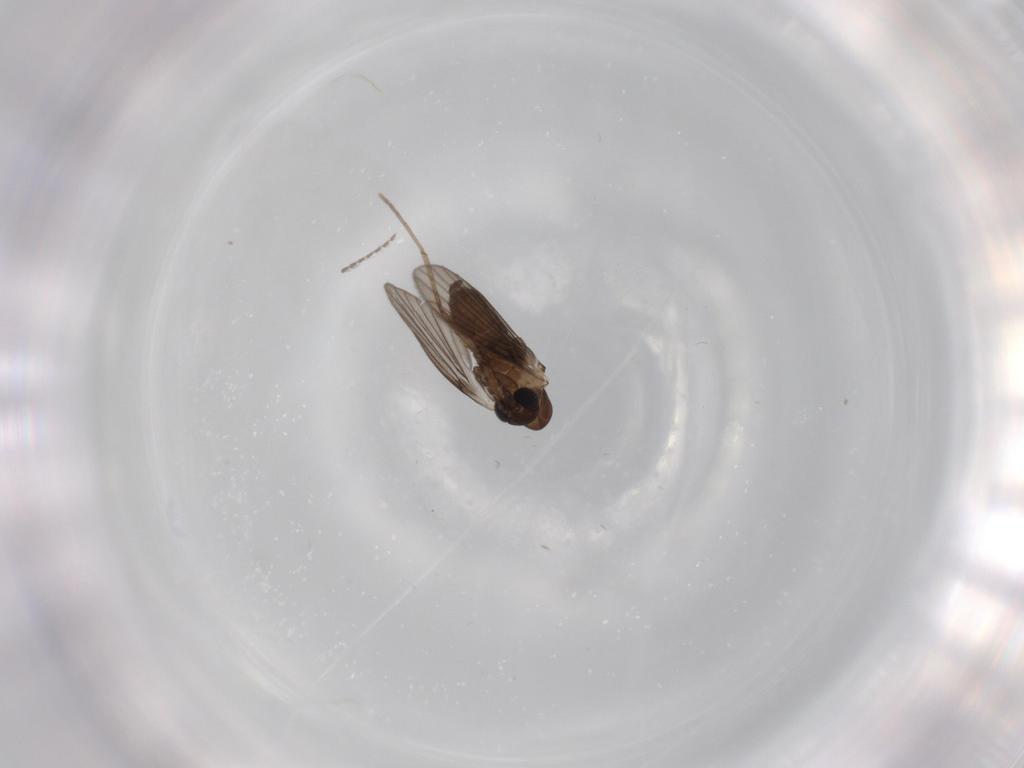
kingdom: Animalia
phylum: Arthropoda
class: Insecta
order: Diptera
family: Psychodidae
